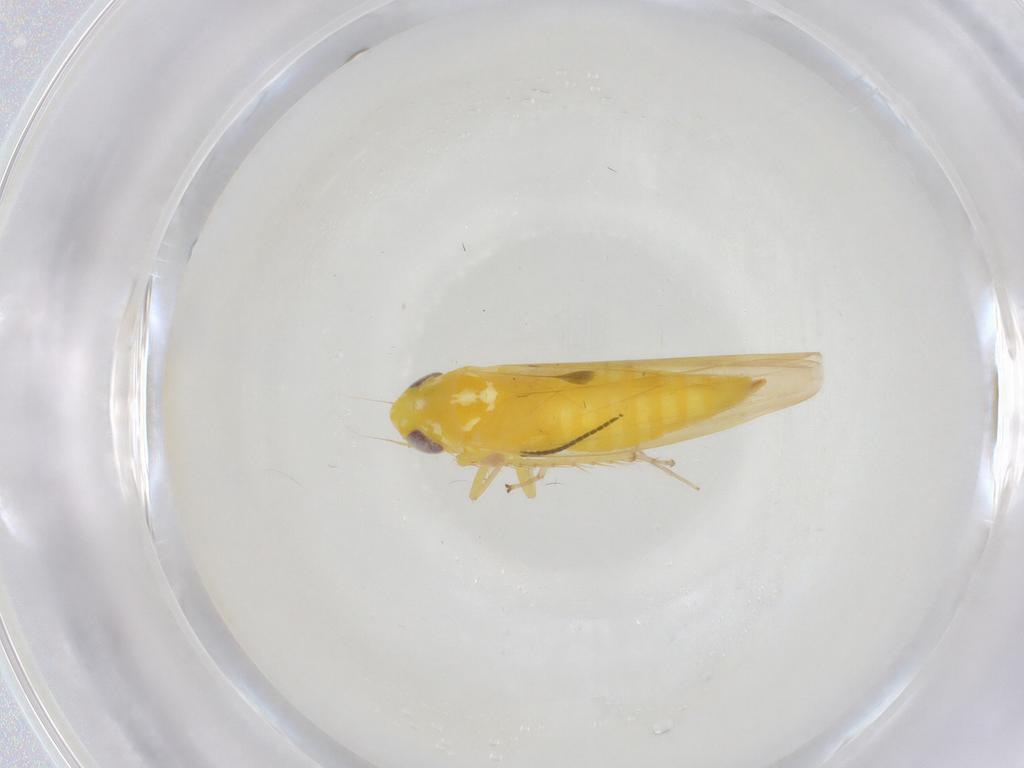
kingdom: Animalia
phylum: Arthropoda
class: Insecta
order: Hemiptera
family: Cicadellidae
